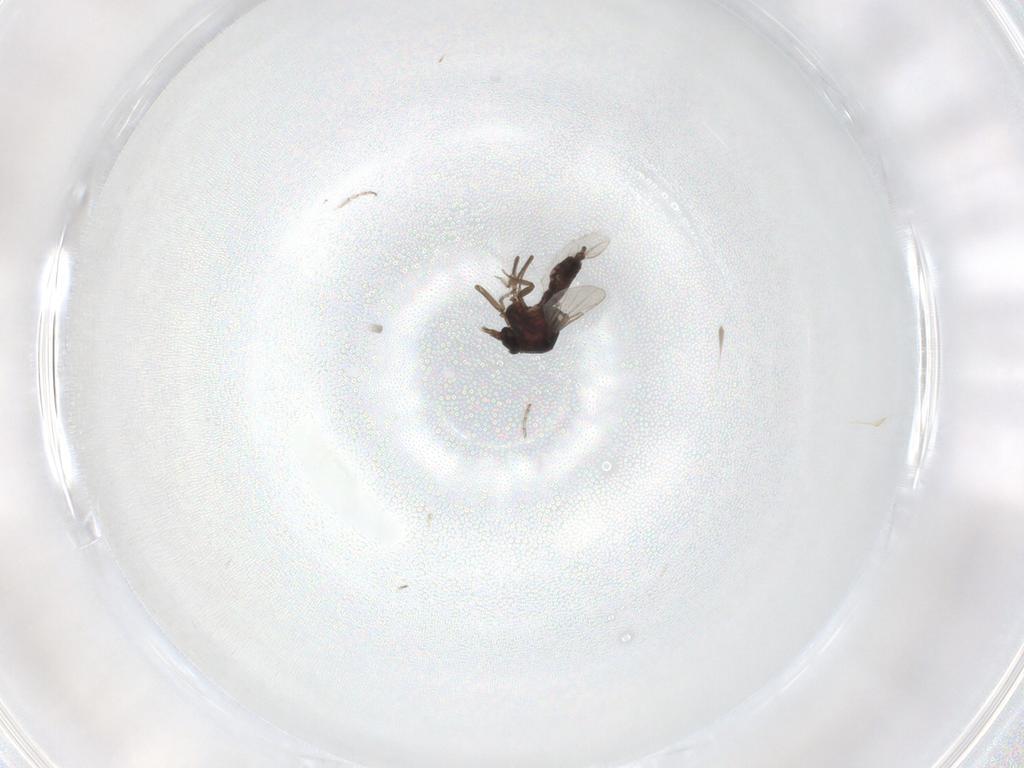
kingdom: Animalia
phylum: Arthropoda
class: Insecta
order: Diptera
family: Ceratopogonidae
